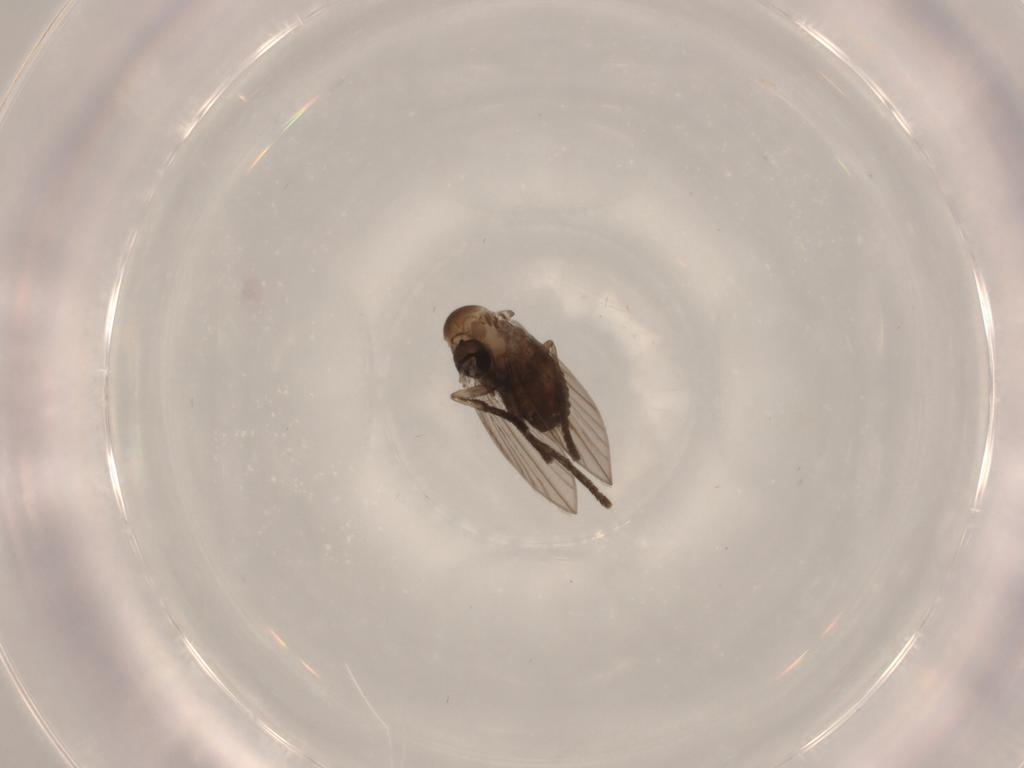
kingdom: Animalia
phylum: Arthropoda
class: Insecta
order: Diptera
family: Psychodidae
